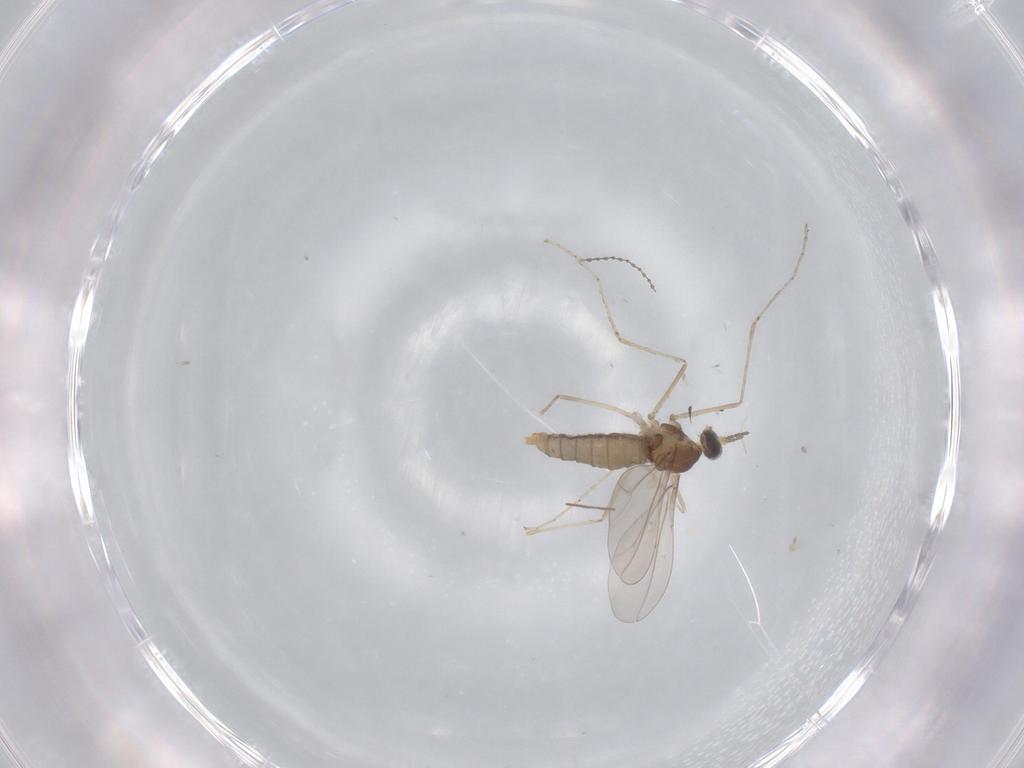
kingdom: Animalia
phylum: Arthropoda
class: Insecta
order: Diptera
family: Chironomidae
